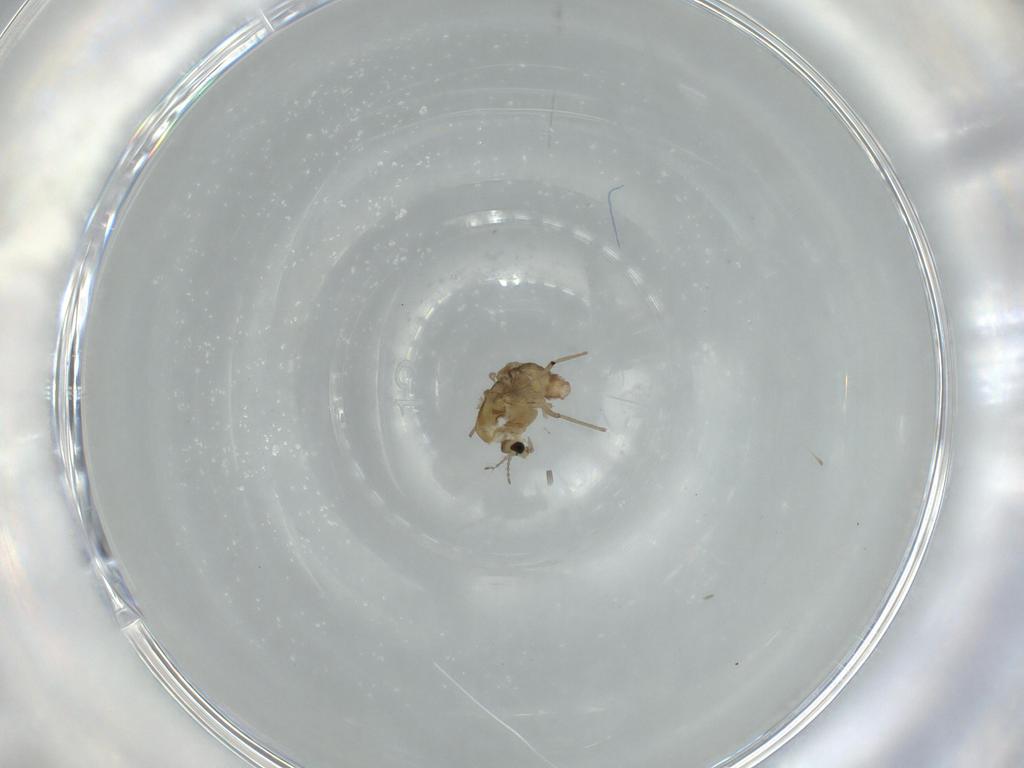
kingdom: Animalia
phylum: Arthropoda
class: Insecta
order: Diptera
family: Chironomidae
